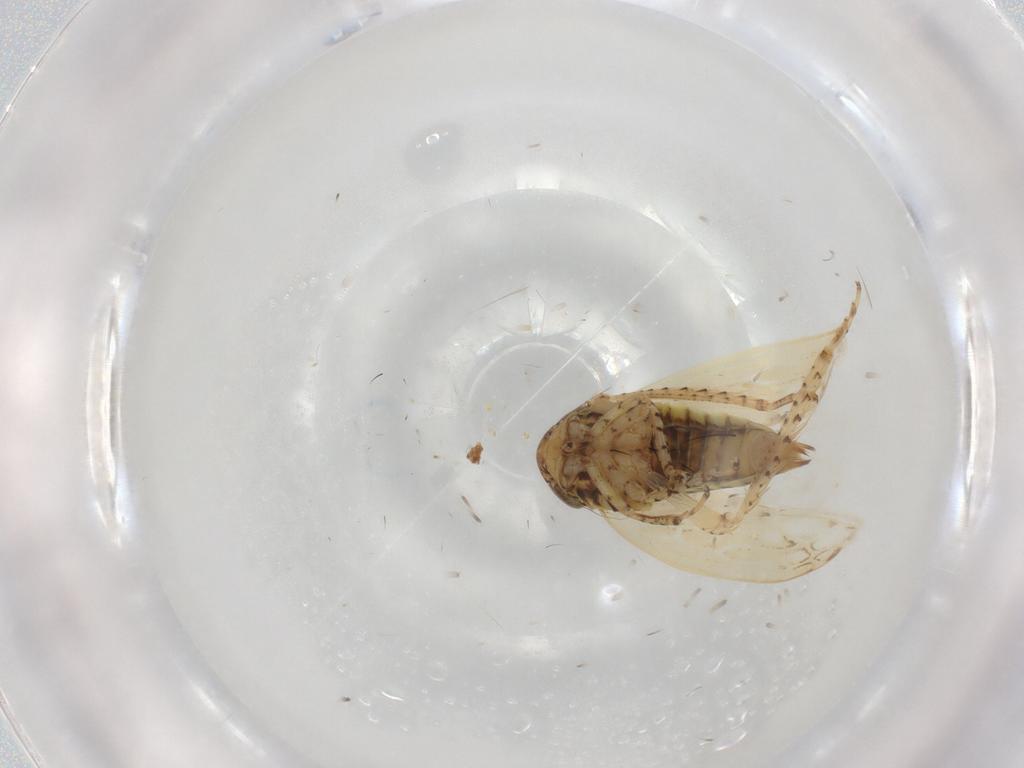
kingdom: Animalia
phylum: Arthropoda
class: Insecta
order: Hemiptera
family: Cicadellidae
